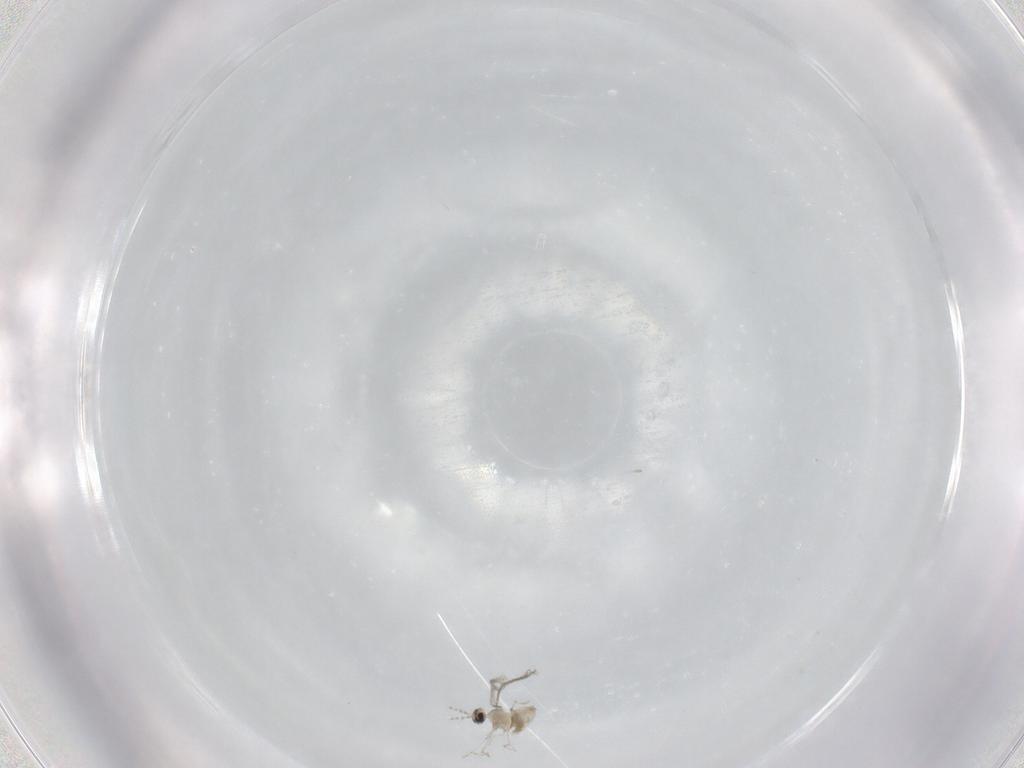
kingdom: Animalia
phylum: Arthropoda
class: Insecta
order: Diptera
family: Cecidomyiidae
